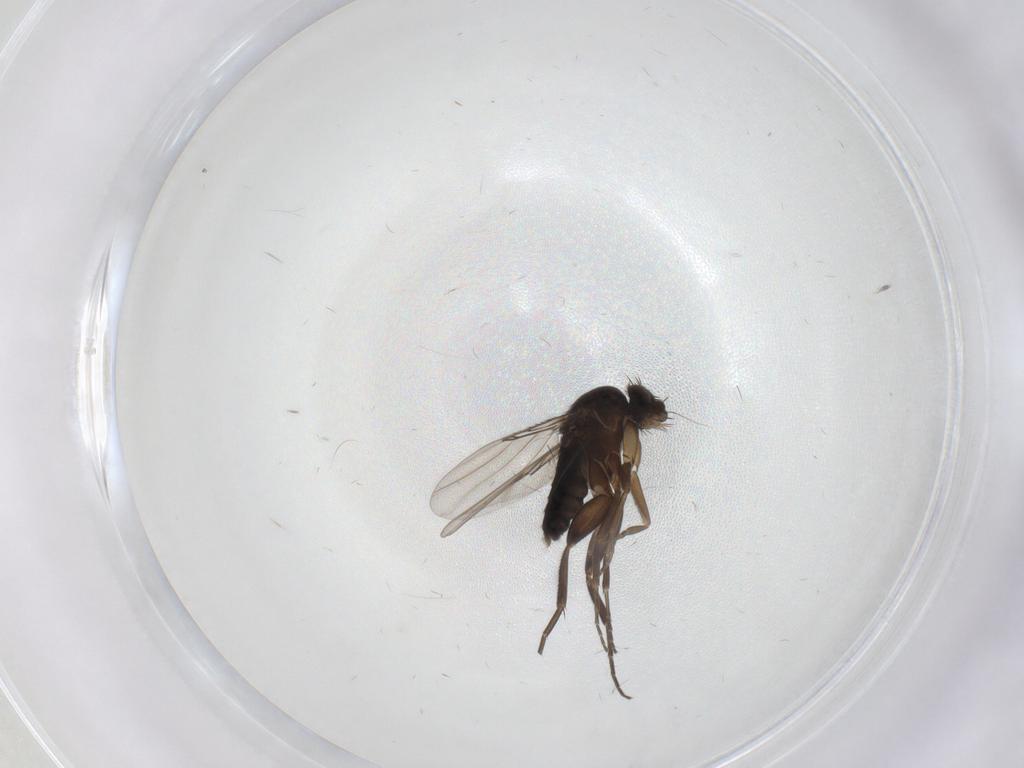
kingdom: Animalia
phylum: Arthropoda
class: Insecta
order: Diptera
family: Phoridae
